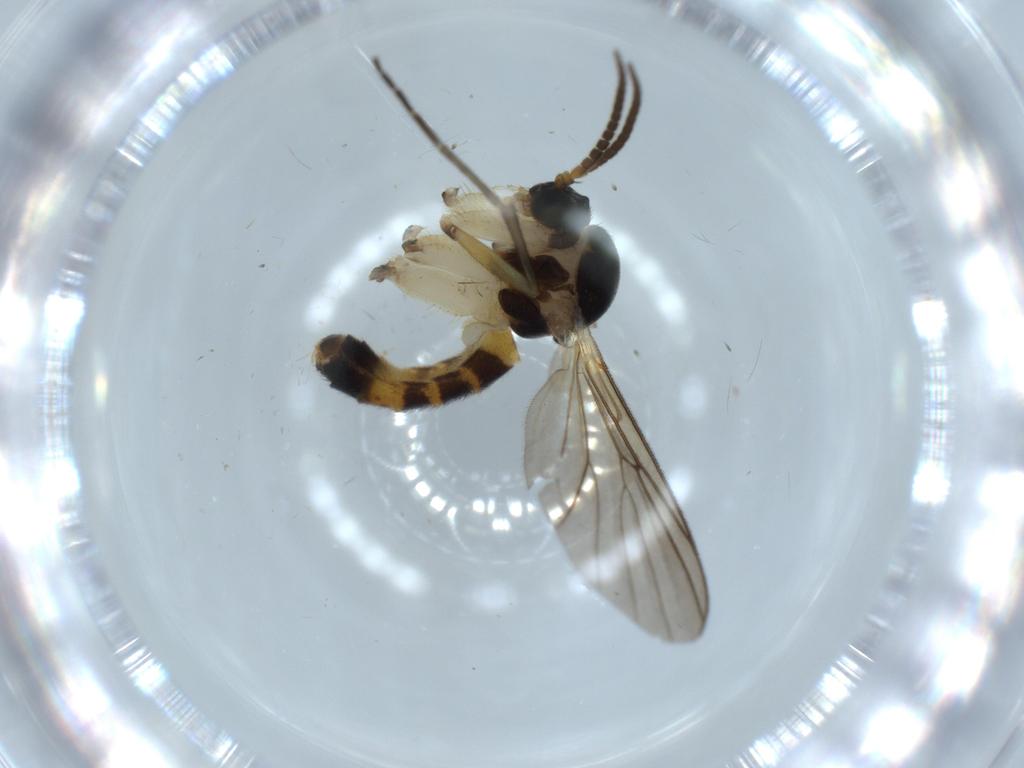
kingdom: Animalia
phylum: Arthropoda
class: Insecta
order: Diptera
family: Mycetophilidae
